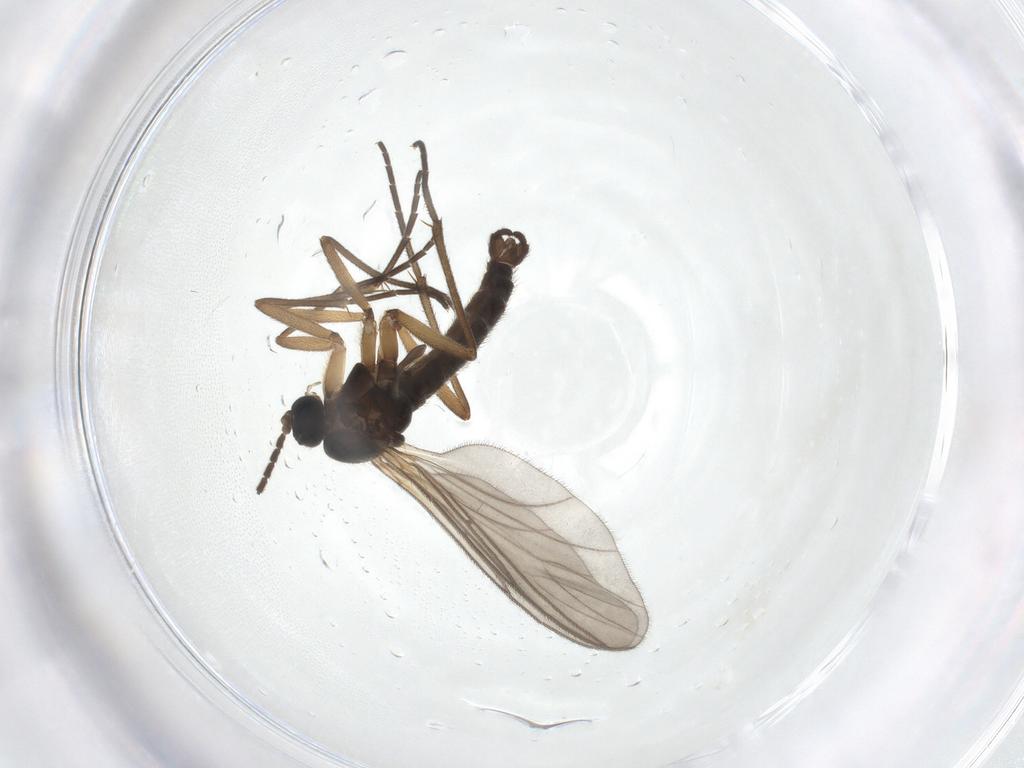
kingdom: Animalia
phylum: Arthropoda
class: Insecta
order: Diptera
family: Sciaridae
